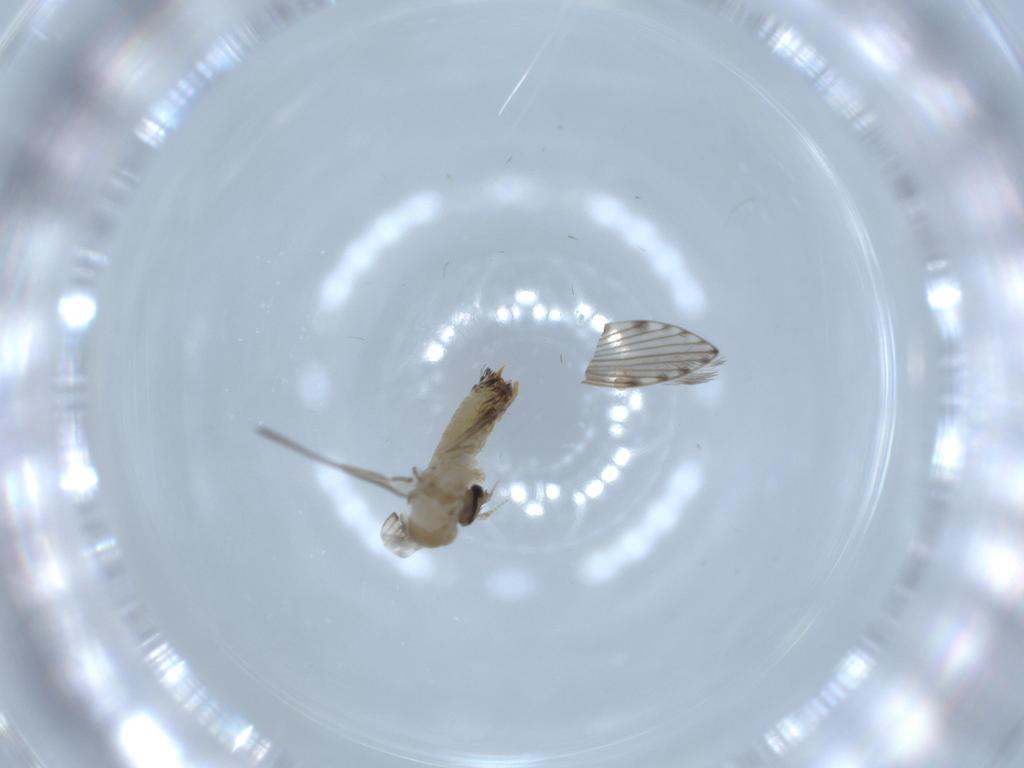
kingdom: Animalia
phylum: Arthropoda
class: Insecta
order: Diptera
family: Psychodidae
